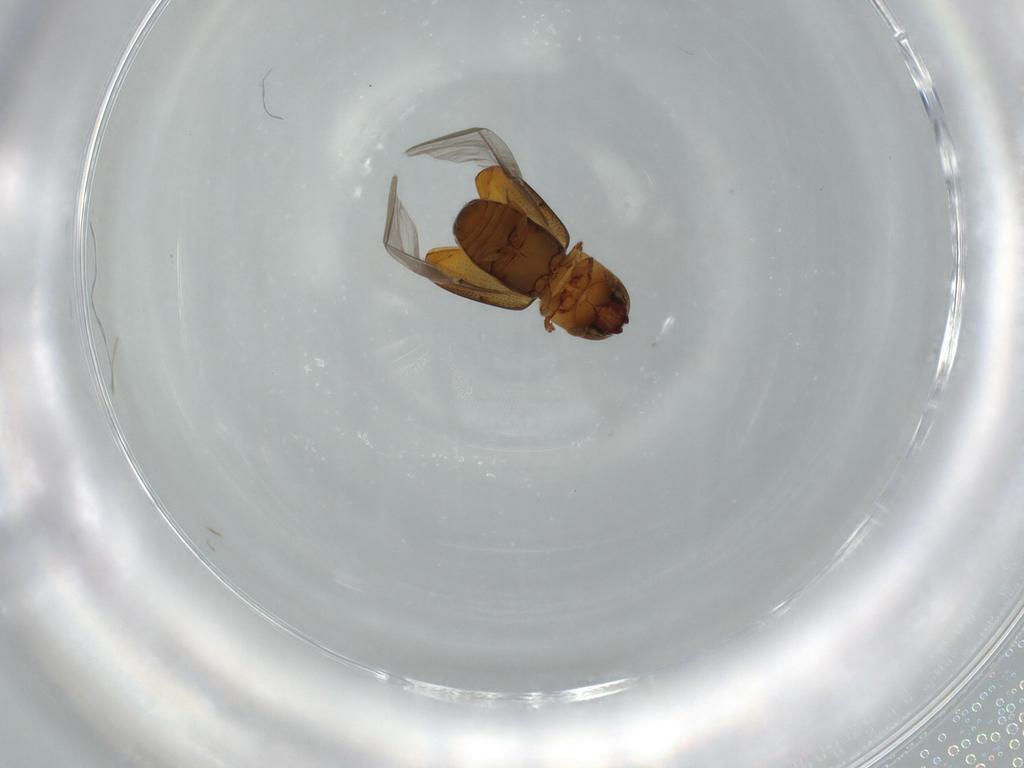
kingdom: Animalia
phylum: Arthropoda
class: Insecta
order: Coleoptera
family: Curculionidae
